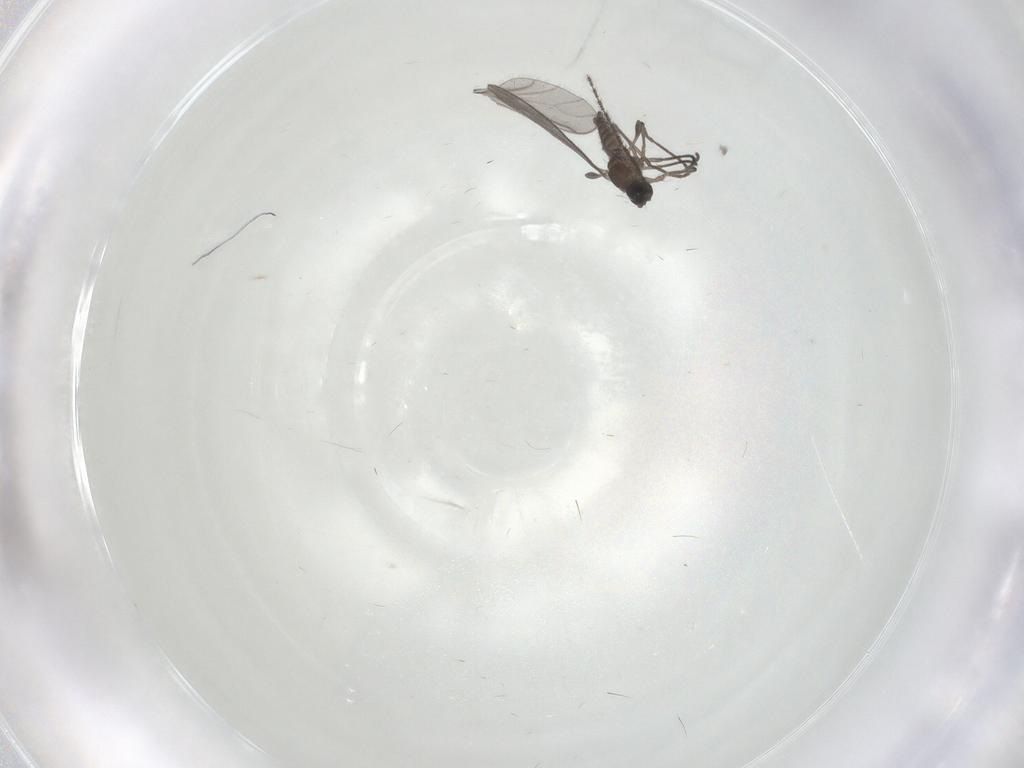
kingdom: Animalia
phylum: Arthropoda
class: Insecta
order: Diptera
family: Sciaridae
